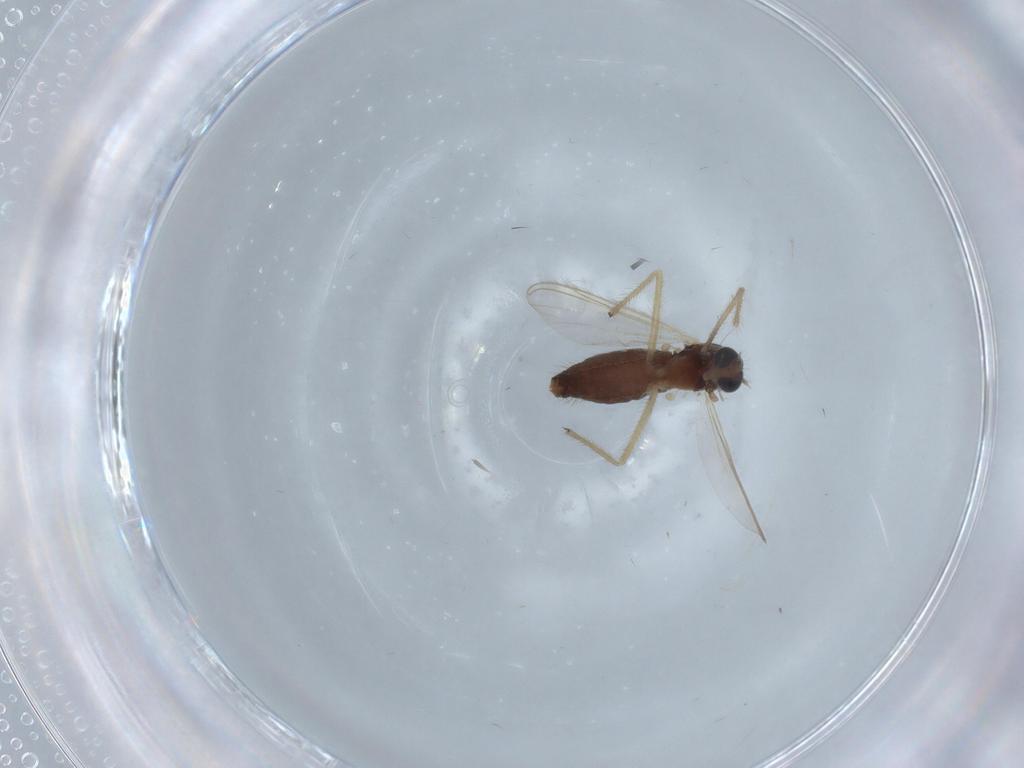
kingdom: Animalia
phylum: Arthropoda
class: Insecta
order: Diptera
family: Chironomidae
